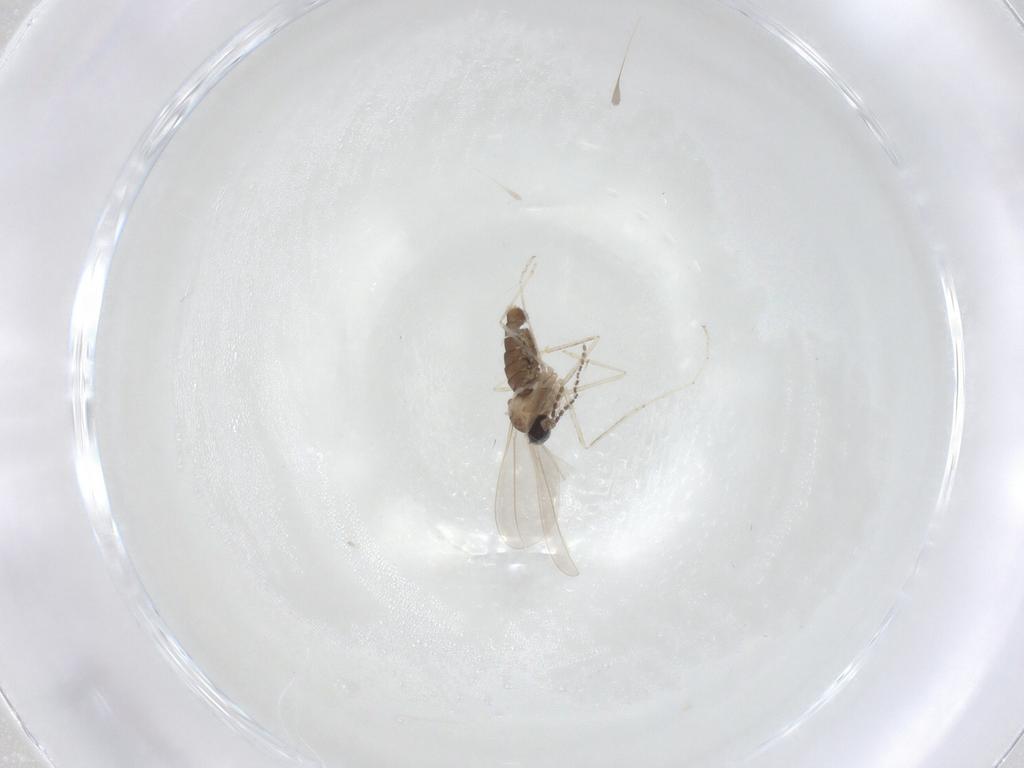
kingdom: Animalia
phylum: Arthropoda
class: Insecta
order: Diptera
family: Cecidomyiidae
